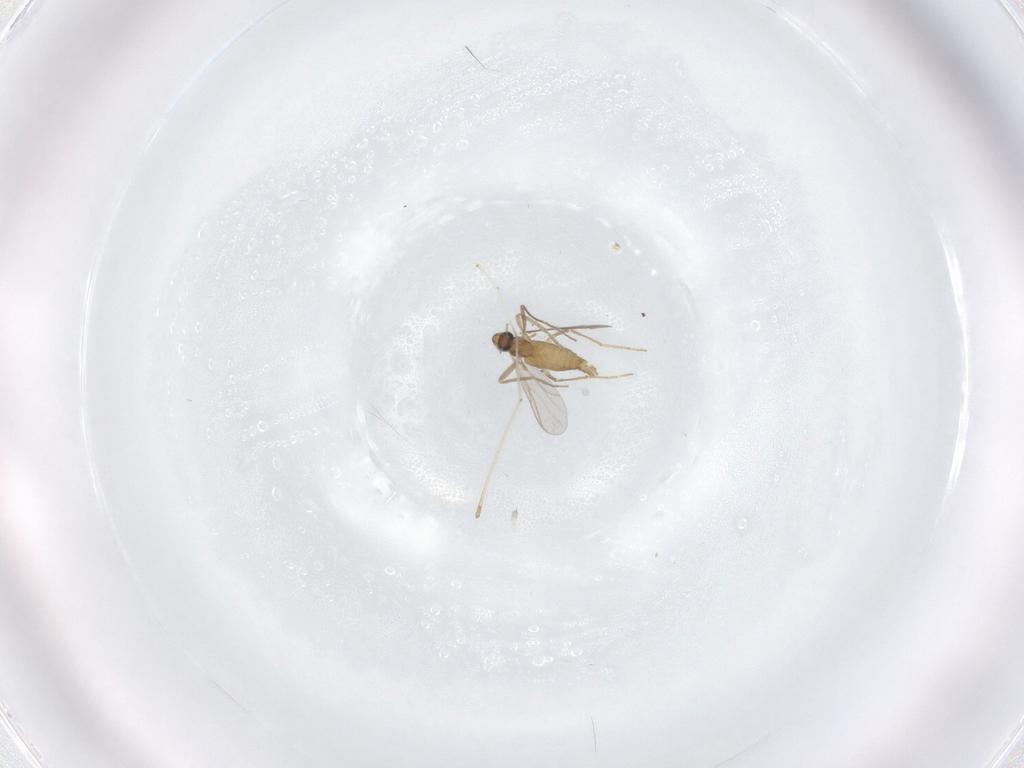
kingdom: Animalia
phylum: Arthropoda
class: Insecta
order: Diptera
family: Chironomidae
